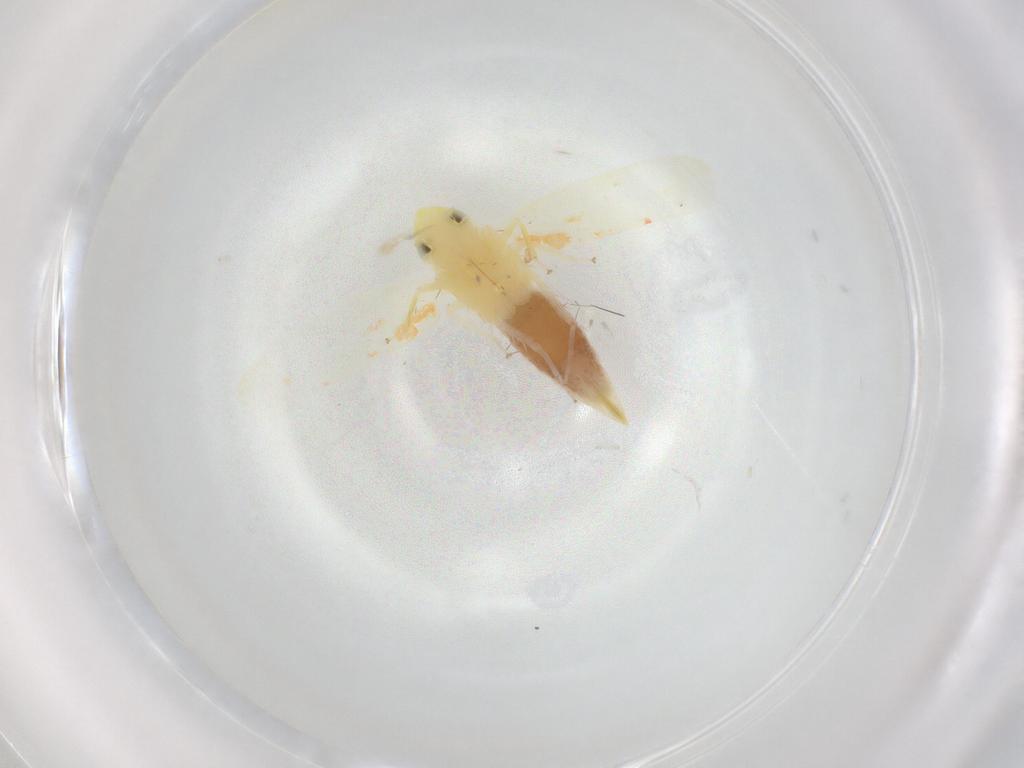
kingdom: Animalia
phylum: Arthropoda
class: Insecta
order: Hemiptera
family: Cicadellidae
